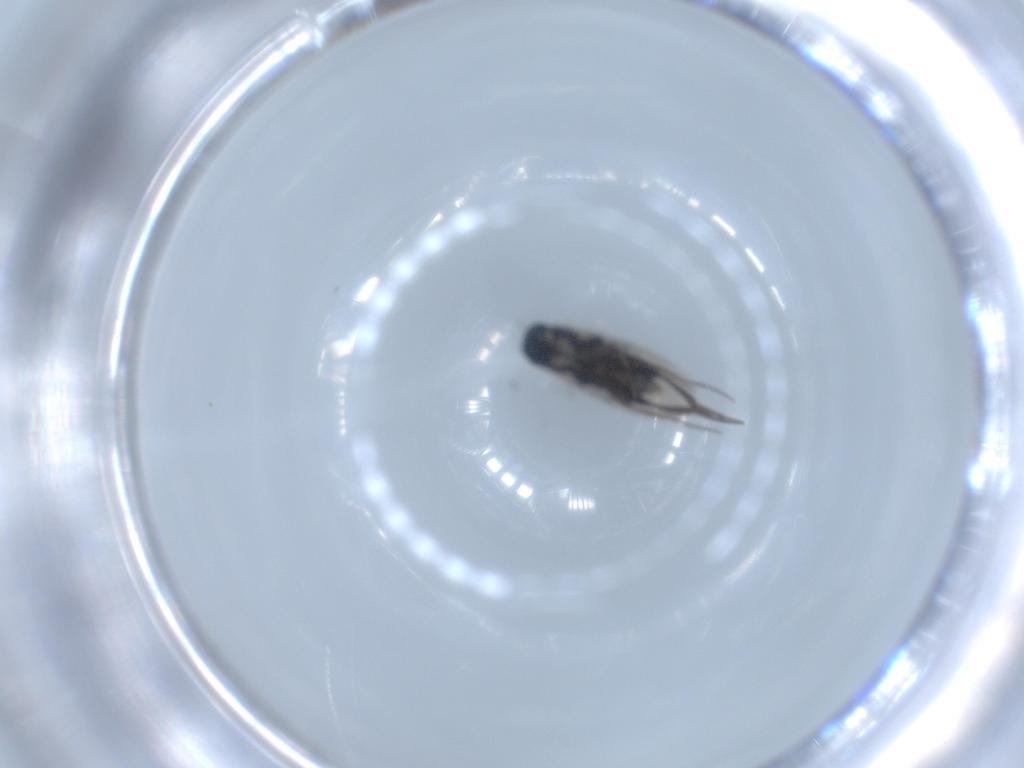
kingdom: Animalia
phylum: Arthropoda
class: Insecta
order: Diptera
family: Phoridae
